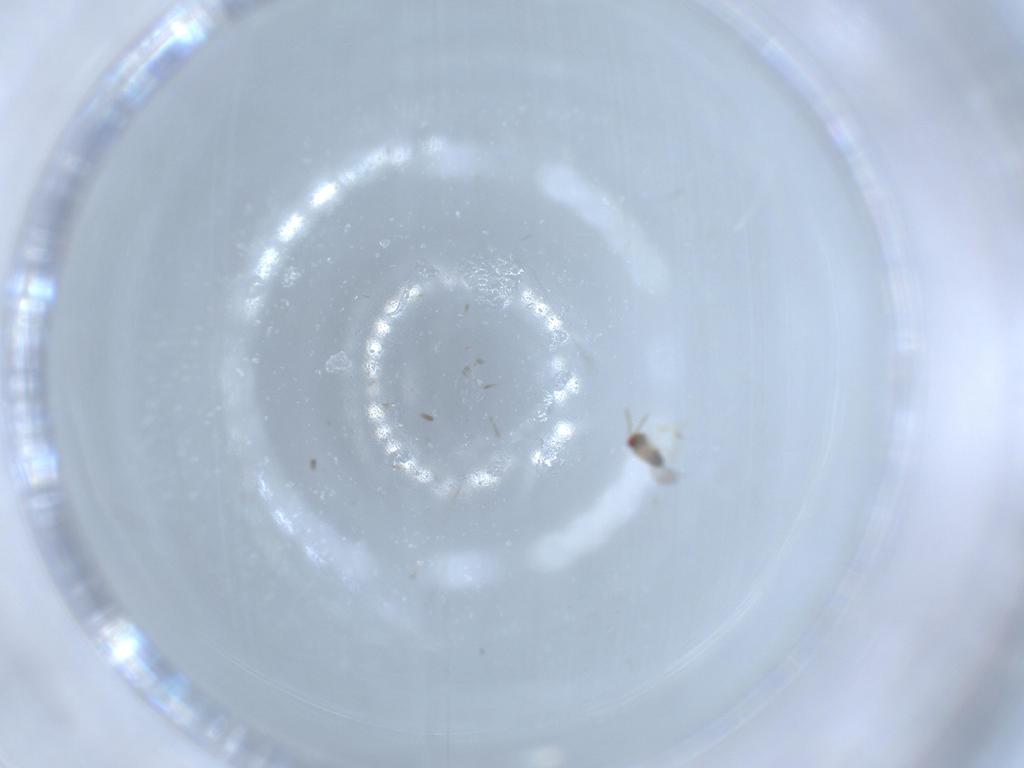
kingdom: Animalia
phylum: Arthropoda
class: Insecta
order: Hymenoptera
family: Aphelinidae
